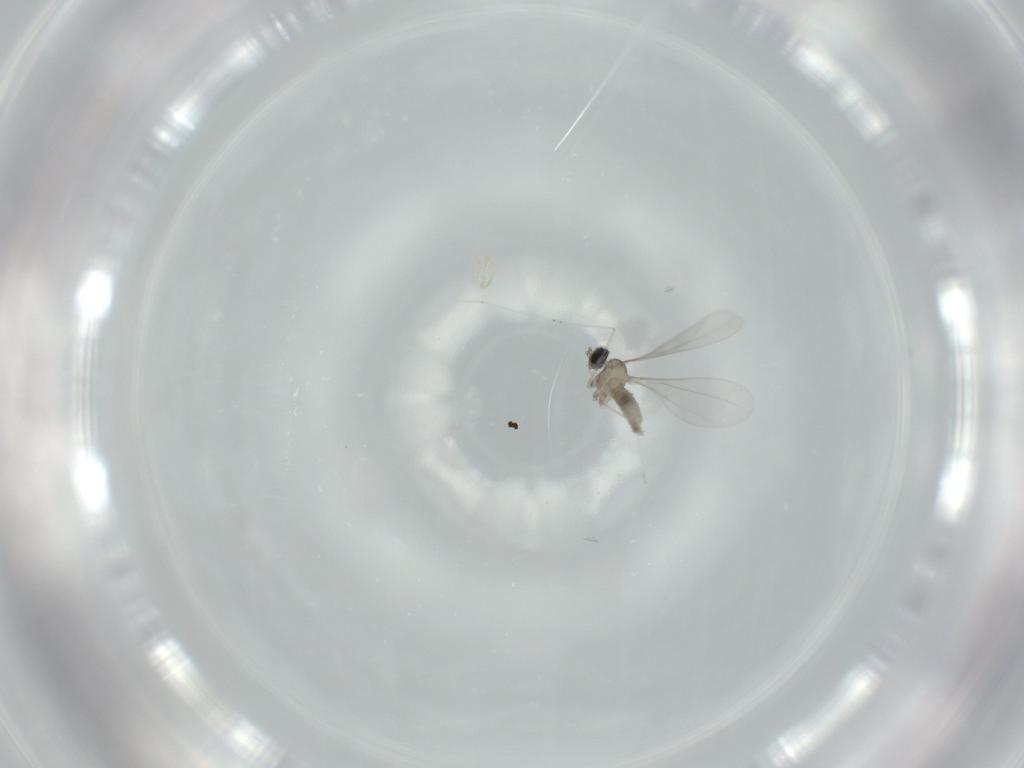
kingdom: Animalia
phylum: Arthropoda
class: Insecta
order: Diptera
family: Cecidomyiidae
